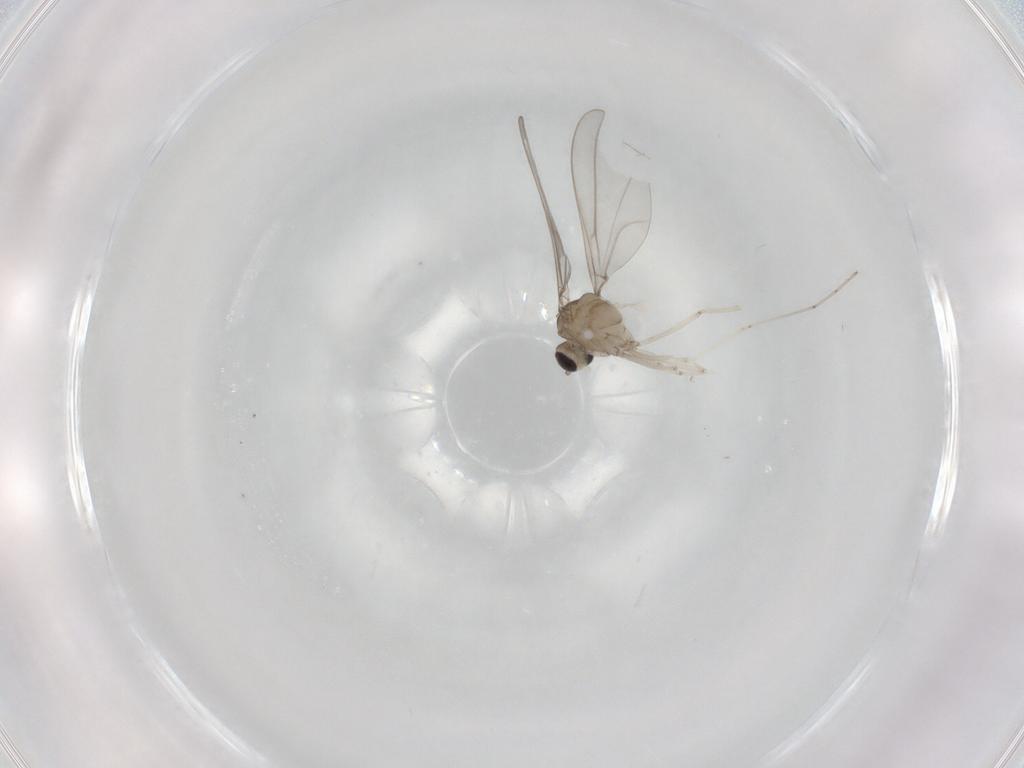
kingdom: Animalia
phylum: Arthropoda
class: Insecta
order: Diptera
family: Cecidomyiidae
